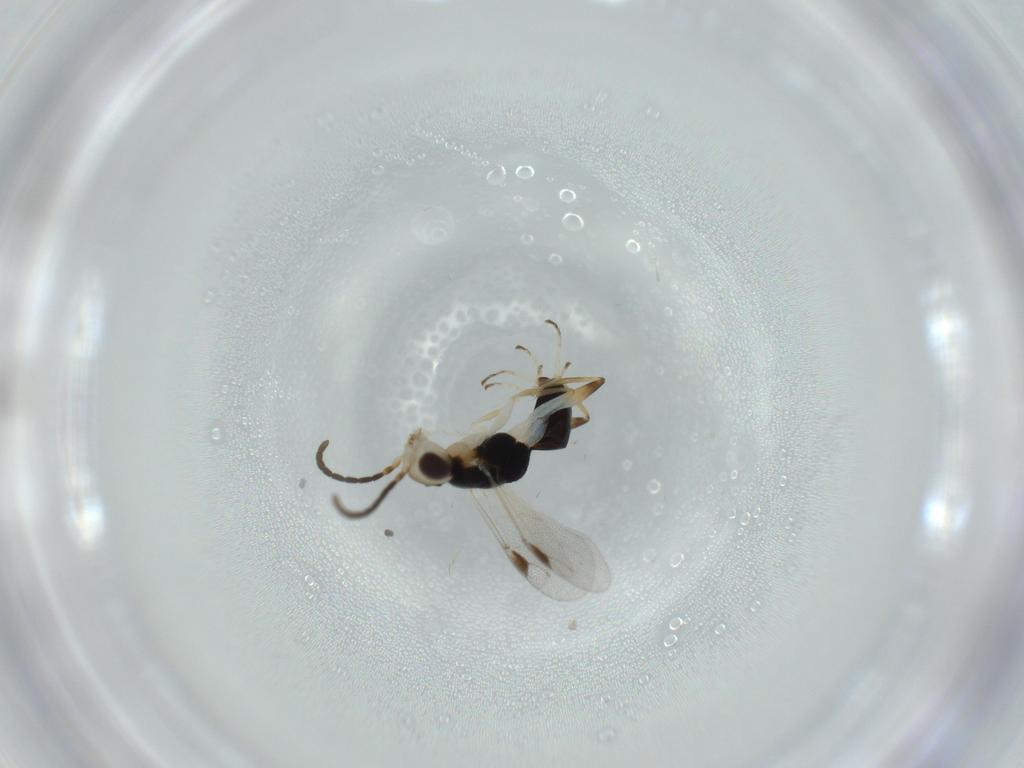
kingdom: Animalia
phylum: Arthropoda
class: Insecta
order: Hymenoptera
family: Dryinidae
